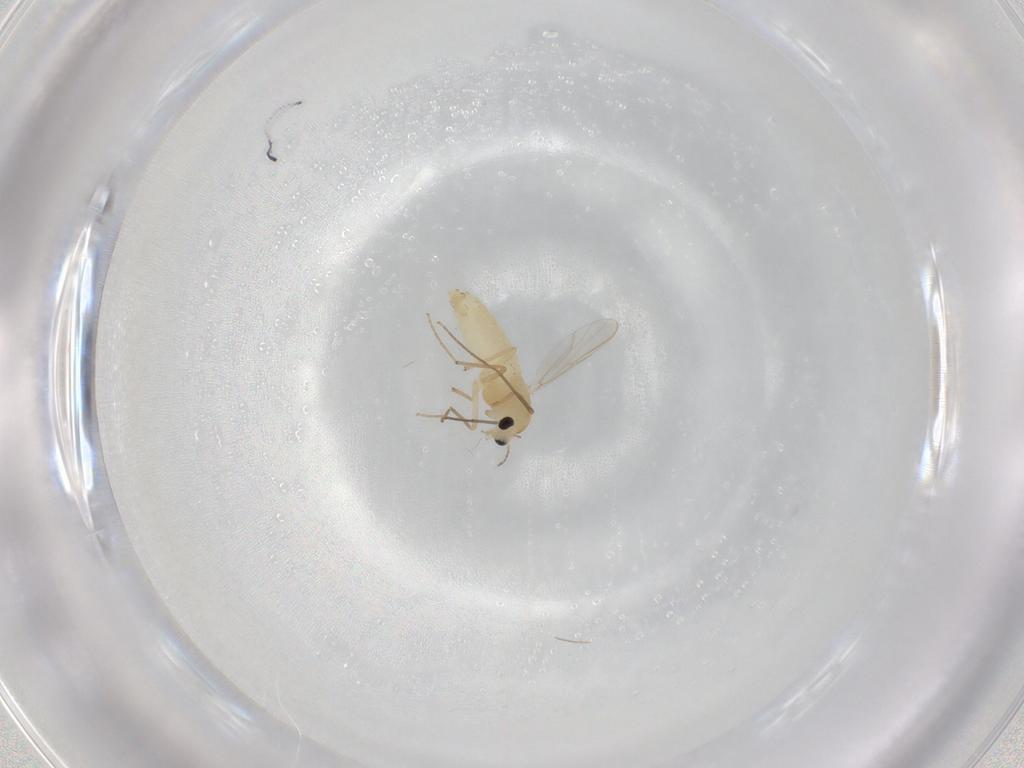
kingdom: Animalia
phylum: Arthropoda
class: Insecta
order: Diptera
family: Chironomidae
